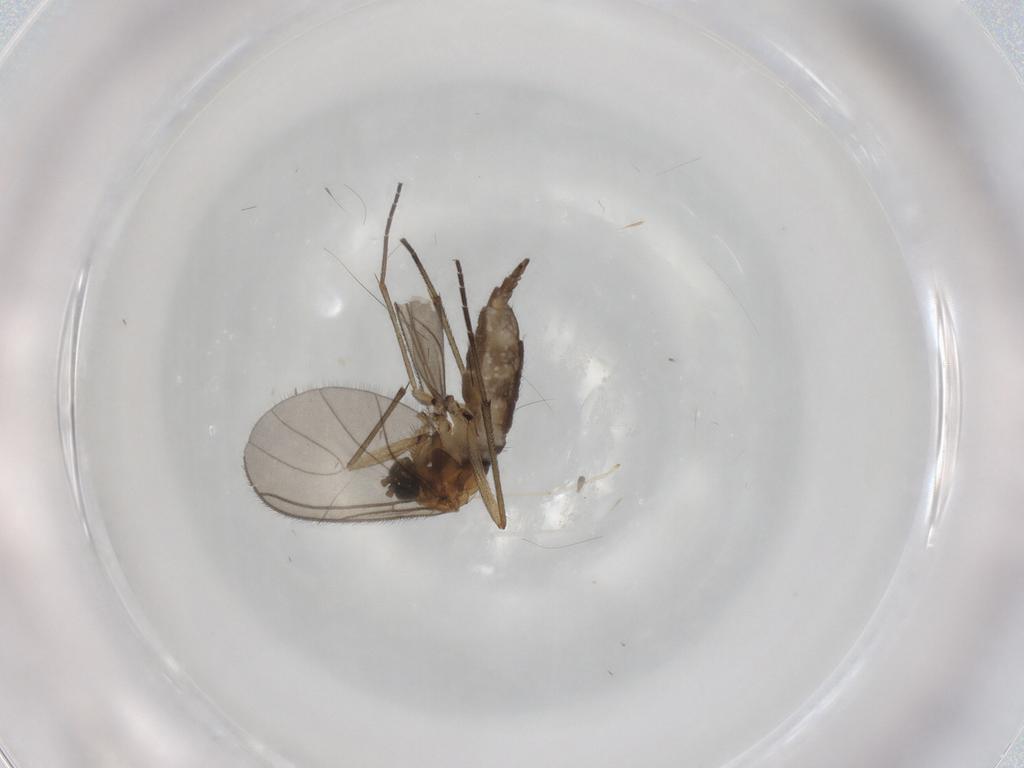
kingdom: Animalia
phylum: Arthropoda
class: Insecta
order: Diptera
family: Sciaridae
